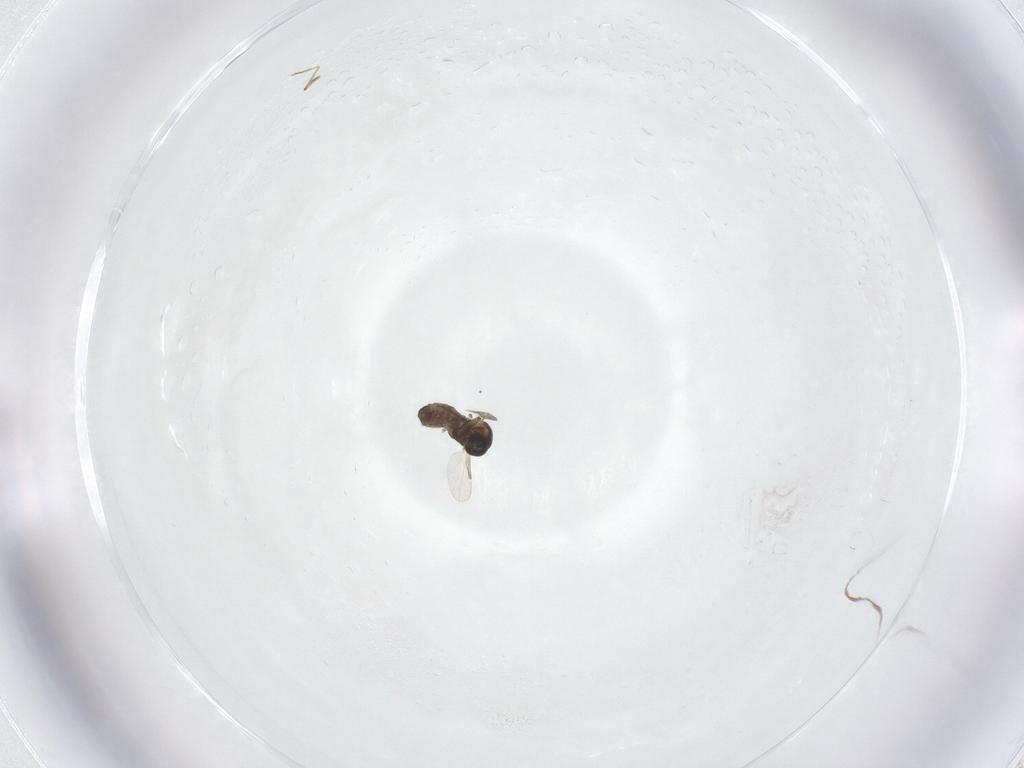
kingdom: Animalia
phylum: Arthropoda
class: Insecta
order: Diptera
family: Ceratopogonidae
